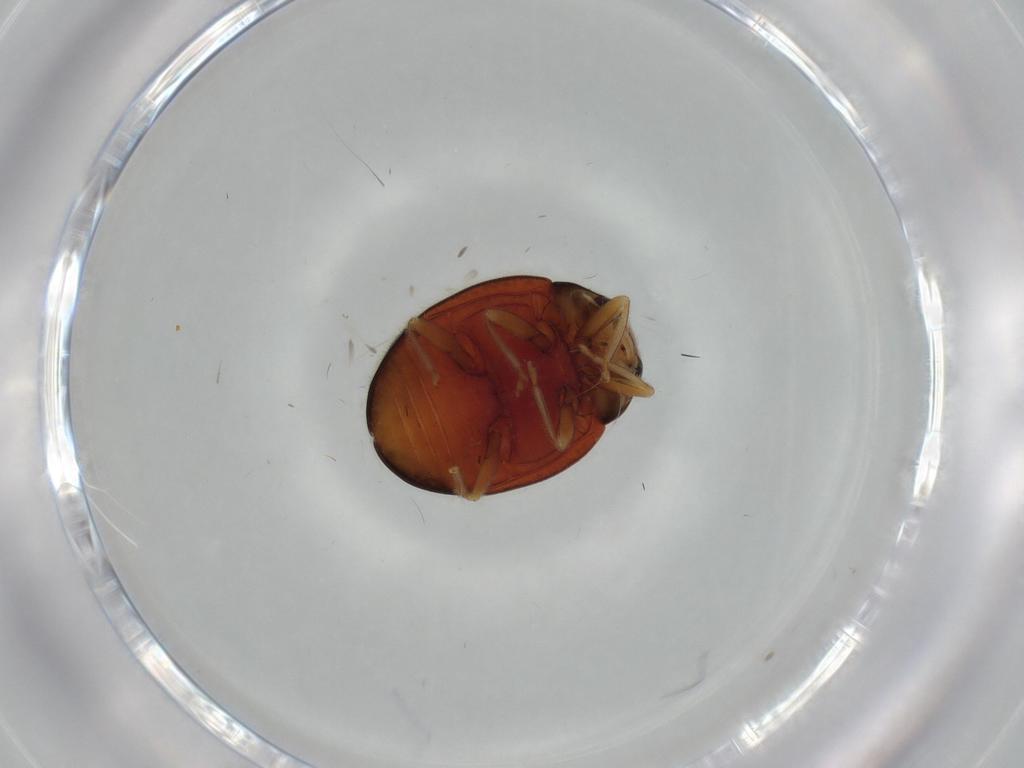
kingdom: Animalia
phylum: Arthropoda
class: Insecta
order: Coleoptera
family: Coccinellidae
